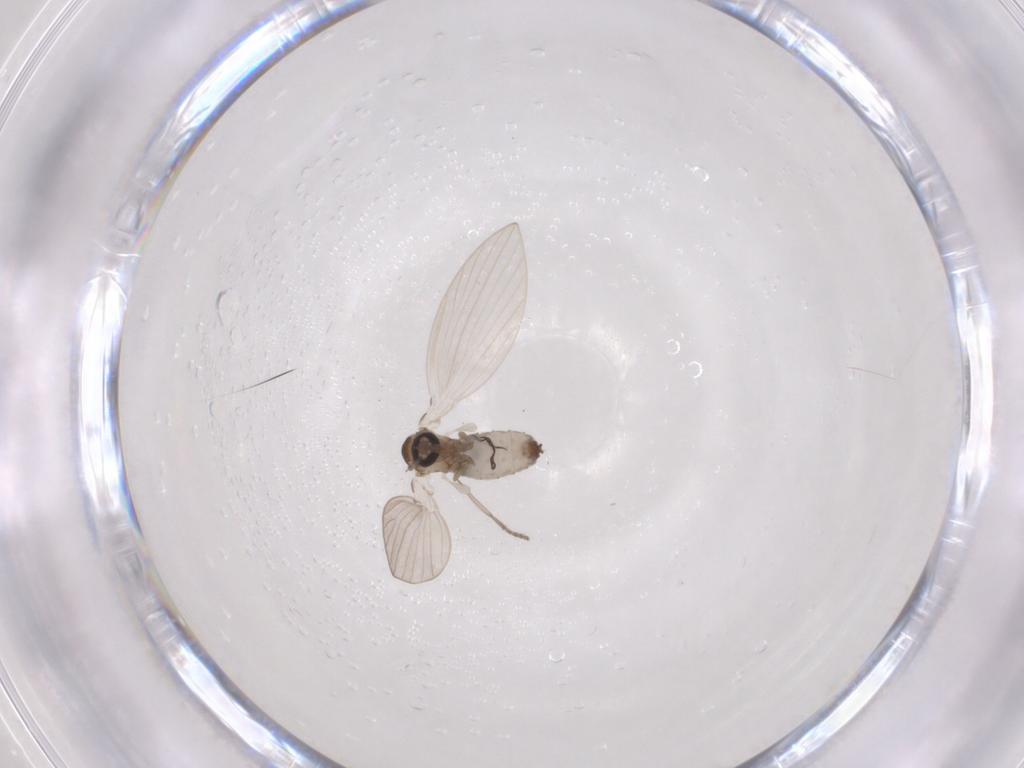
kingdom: Animalia
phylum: Arthropoda
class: Insecta
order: Diptera
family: Psychodidae
